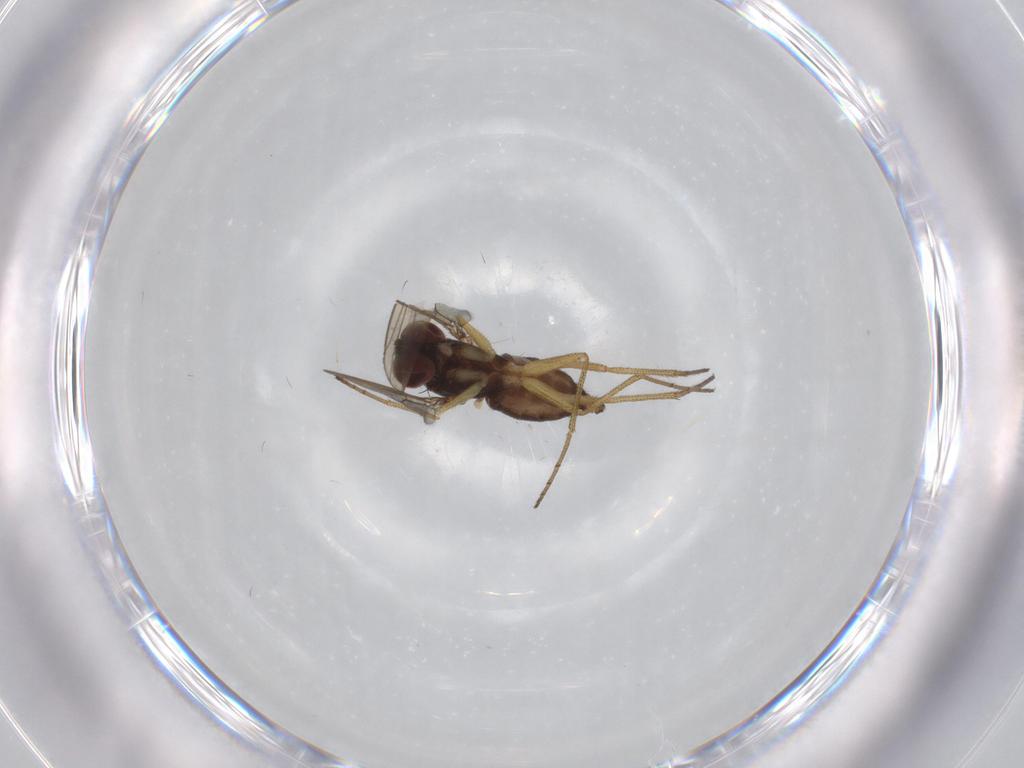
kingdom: Animalia
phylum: Arthropoda
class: Insecta
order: Diptera
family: Dolichopodidae
